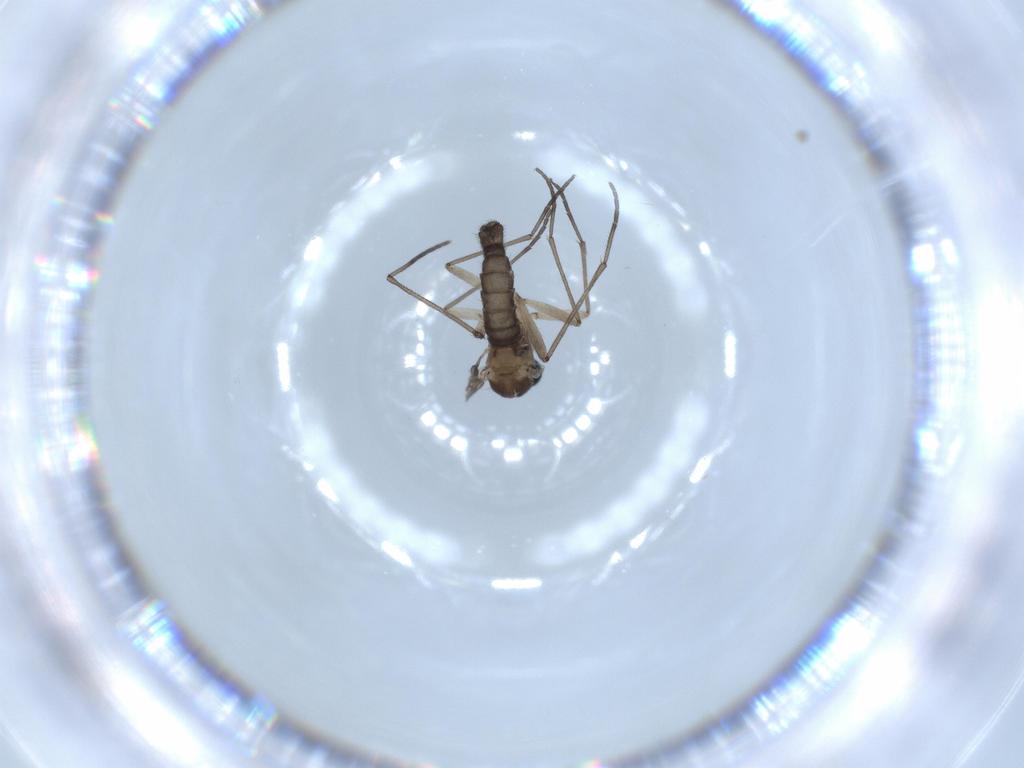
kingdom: Animalia
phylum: Arthropoda
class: Insecta
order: Diptera
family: Sciaridae
